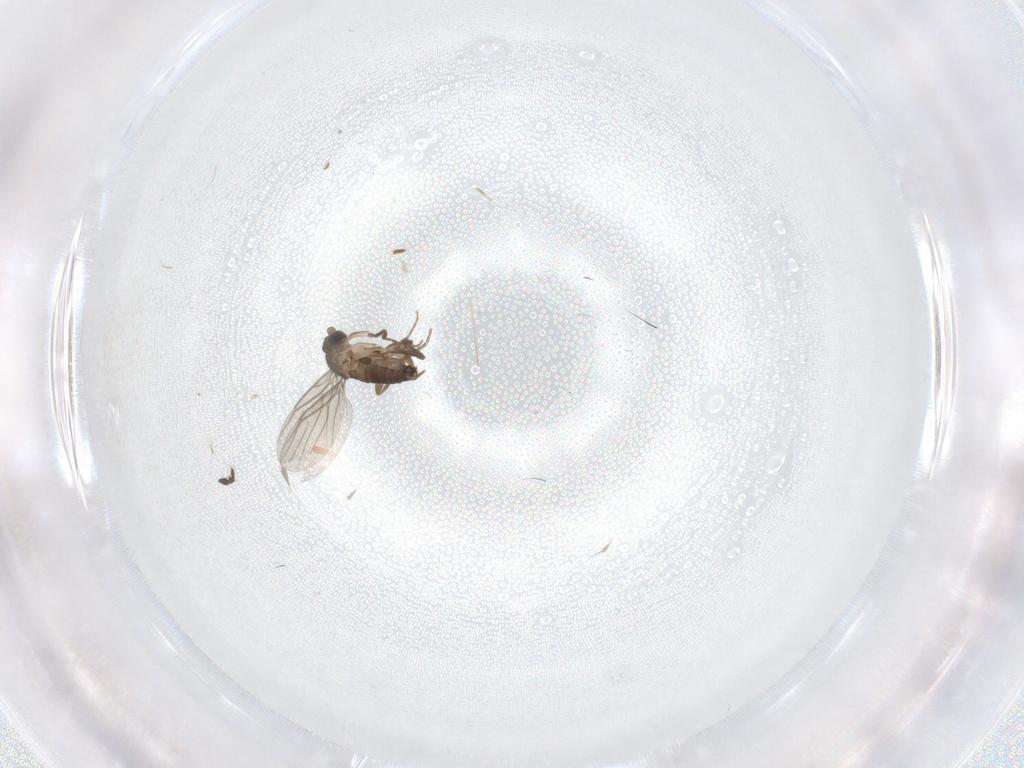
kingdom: Animalia
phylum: Arthropoda
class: Insecta
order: Diptera
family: Limoniidae
